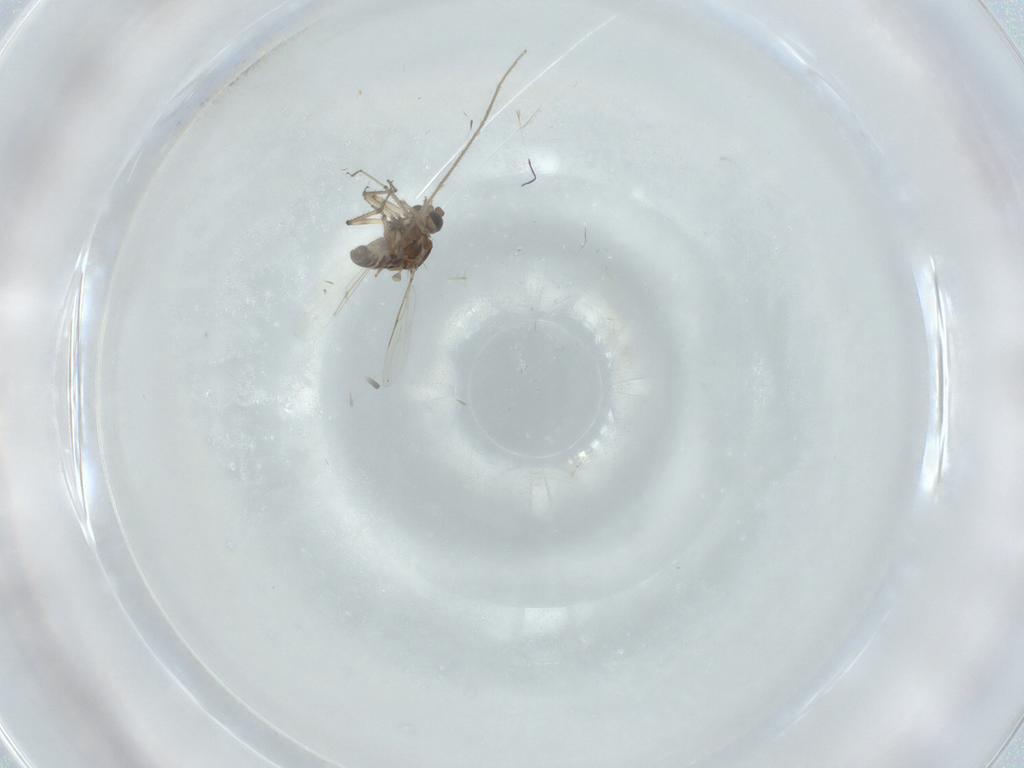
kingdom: Animalia
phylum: Arthropoda
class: Insecta
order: Diptera
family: Ceratopogonidae
